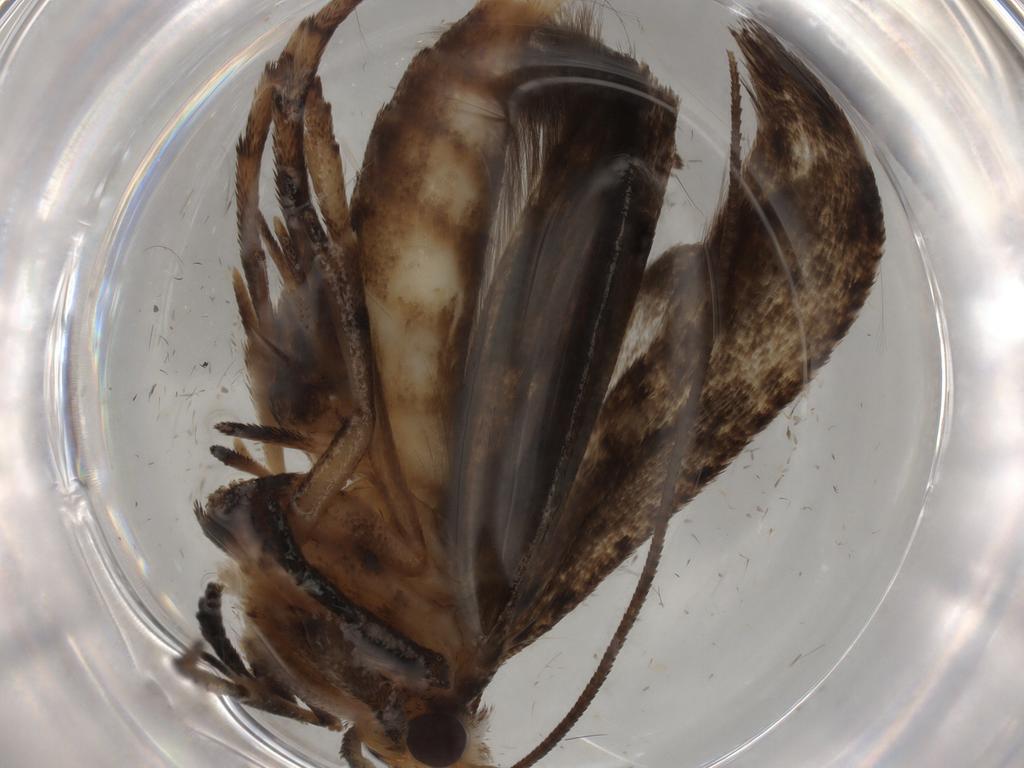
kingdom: Animalia
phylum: Arthropoda
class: Insecta
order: Lepidoptera
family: Yponomeutidae
